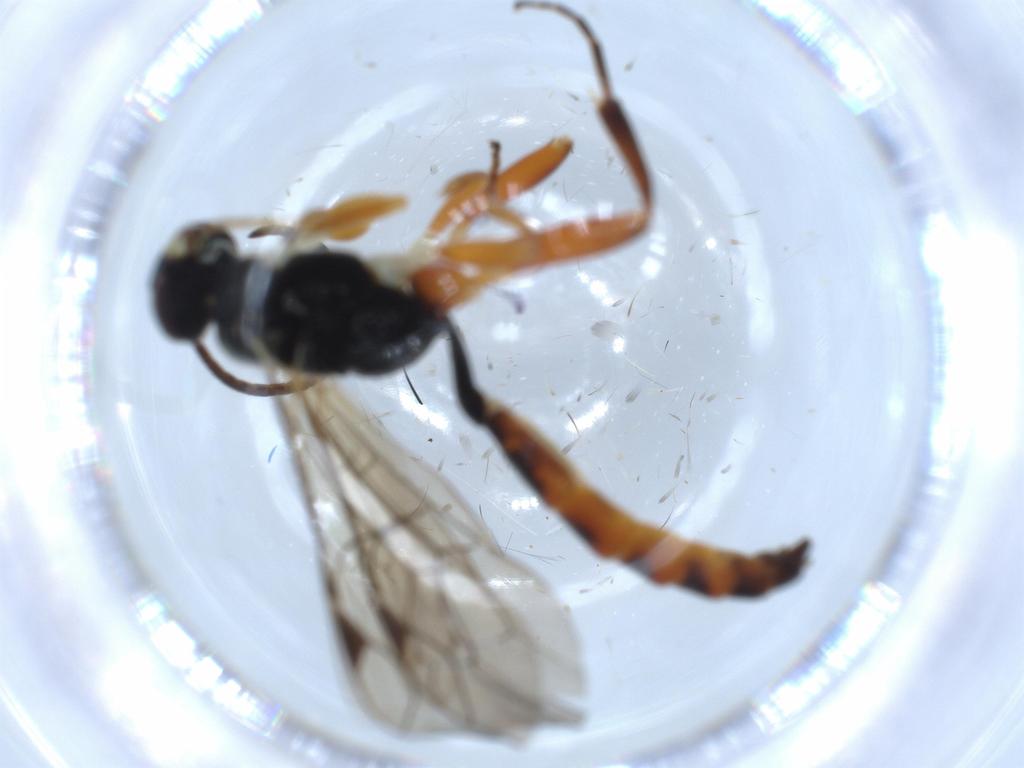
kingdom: Animalia
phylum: Arthropoda
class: Insecta
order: Hymenoptera
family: Ichneumonidae
